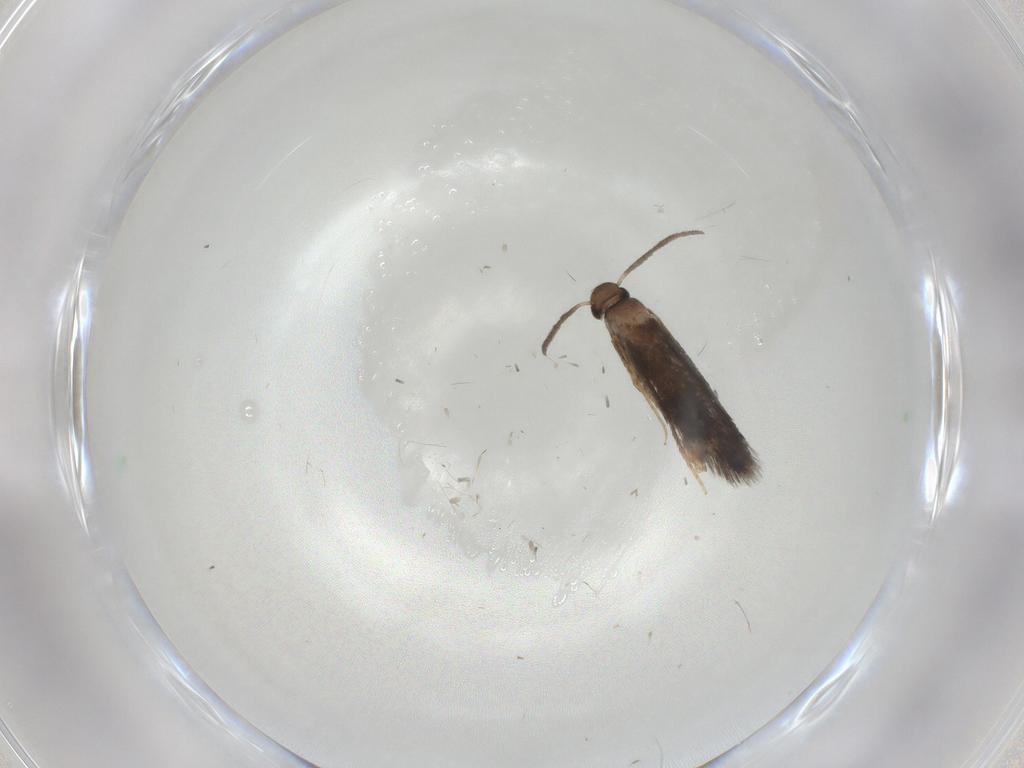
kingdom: Animalia
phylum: Arthropoda
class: Insecta
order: Lepidoptera
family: Heliozelidae
